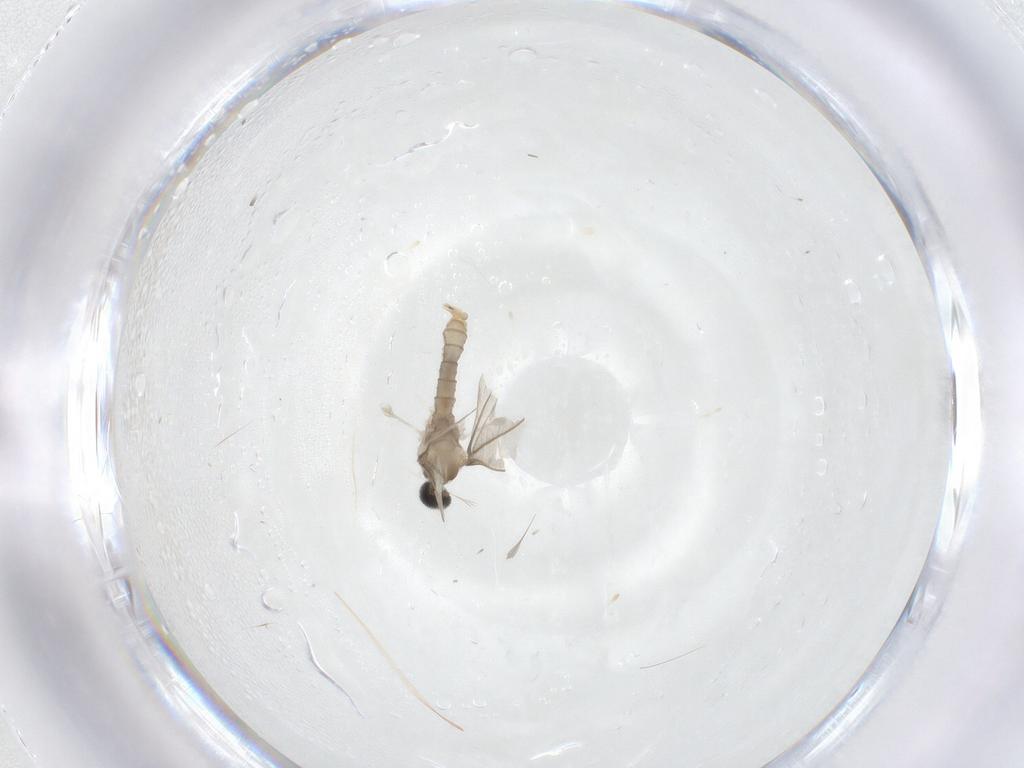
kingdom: Animalia
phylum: Arthropoda
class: Insecta
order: Diptera
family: Cecidomyiidae
